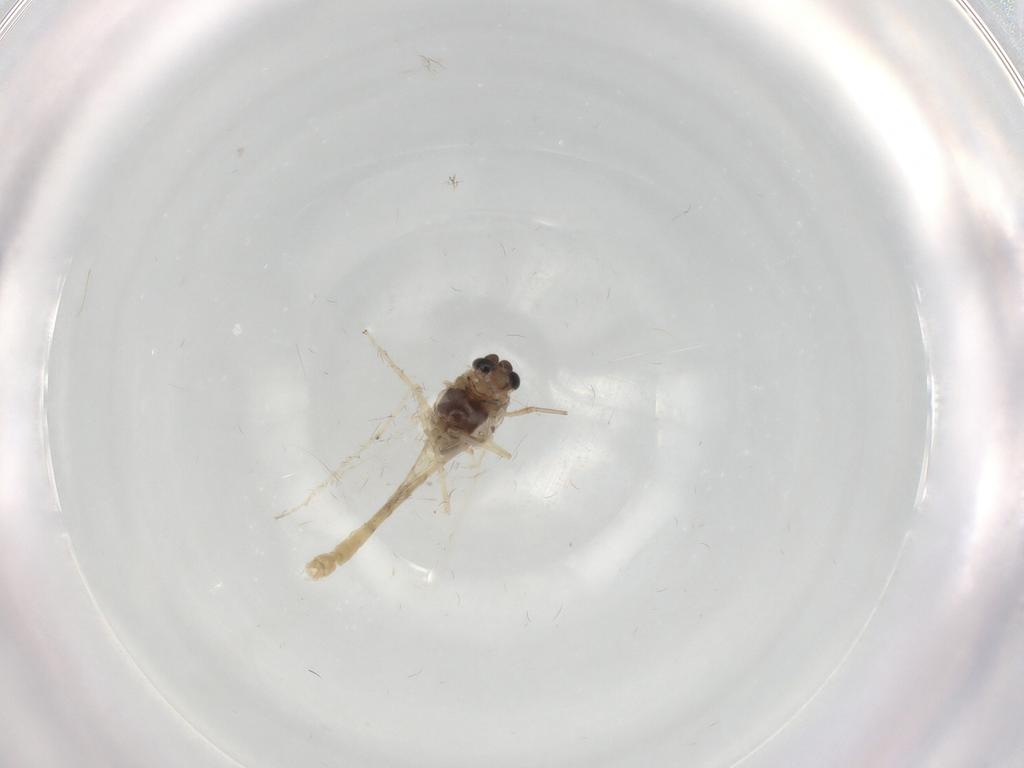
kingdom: Animalia
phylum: Arthropoda
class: Insecta
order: Diptera
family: Chironomidae
